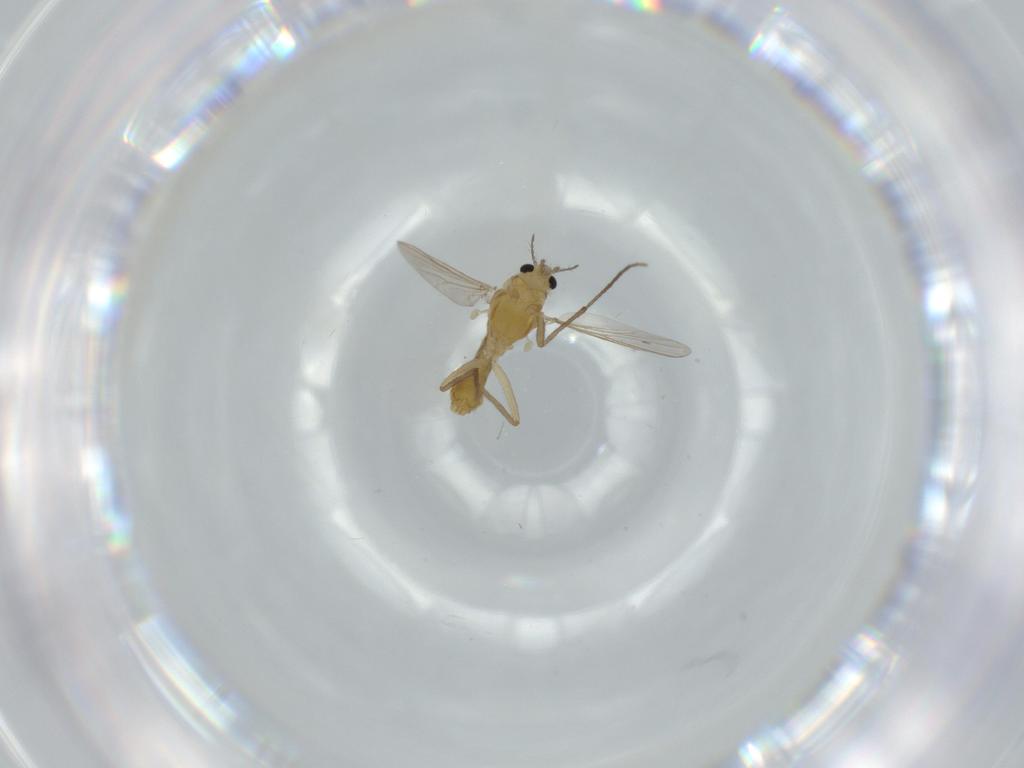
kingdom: Animalia
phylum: Arthropoda
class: Insecta
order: Diptera
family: Chironomidae
